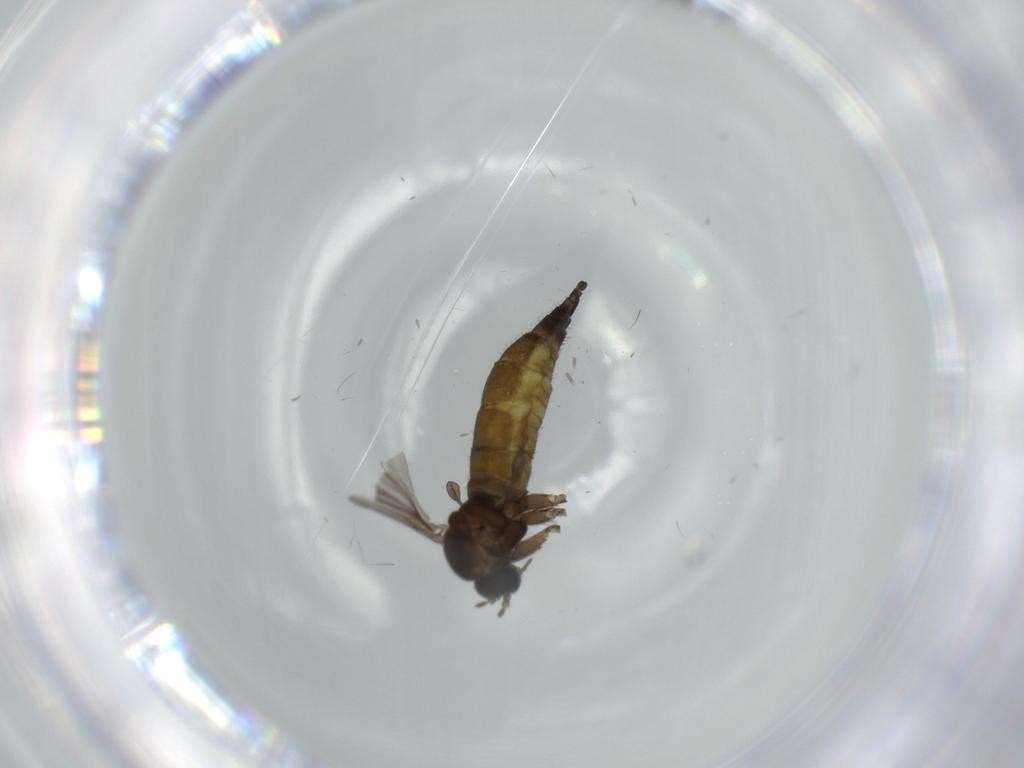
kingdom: Animalia
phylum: Arthropoda
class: Insecta
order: Diptera
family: Sciaridae
